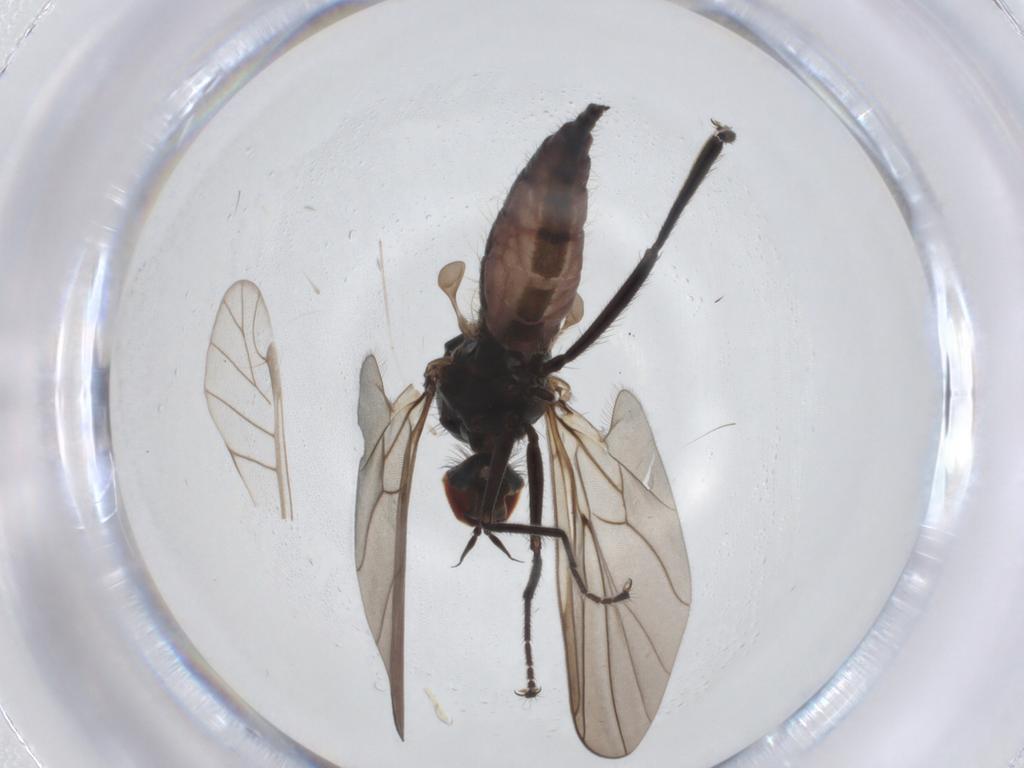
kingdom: Animalia
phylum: Arthropoda
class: Insecta
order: Diptera
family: Hybotidae
